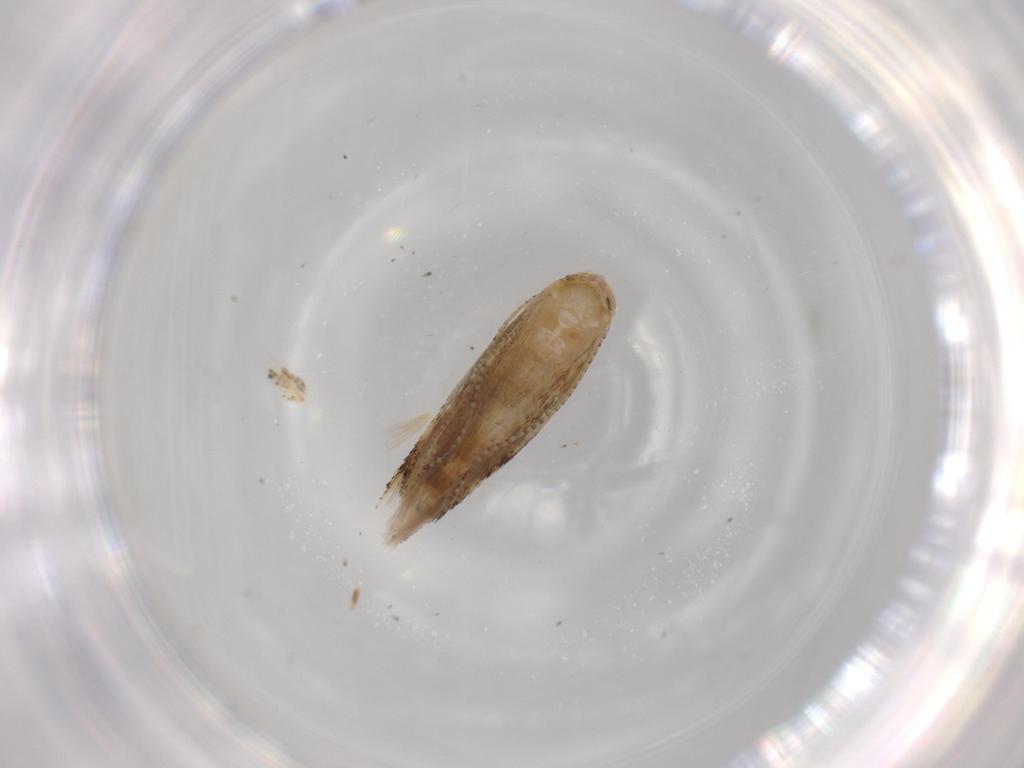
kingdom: Animalia
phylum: Arthropoda
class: Insecta
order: Lepidoptera
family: Bucculatricidae
